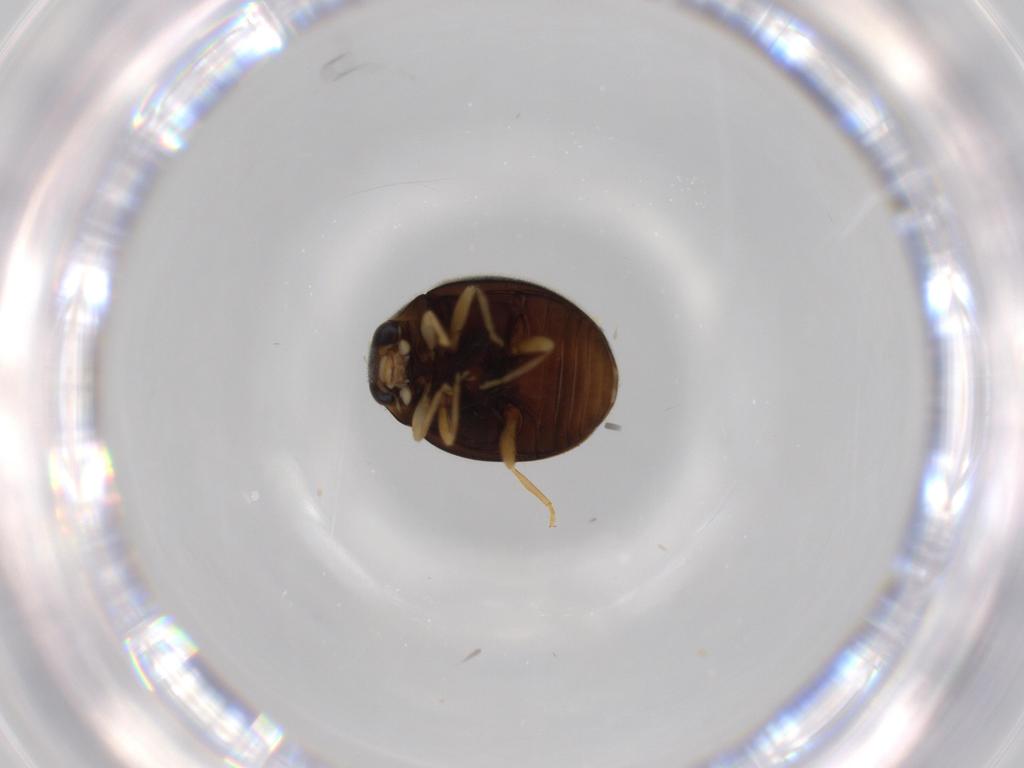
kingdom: Animalia
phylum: Arthropoda
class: Insecta
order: Coleoptera
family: Coccinellidae
